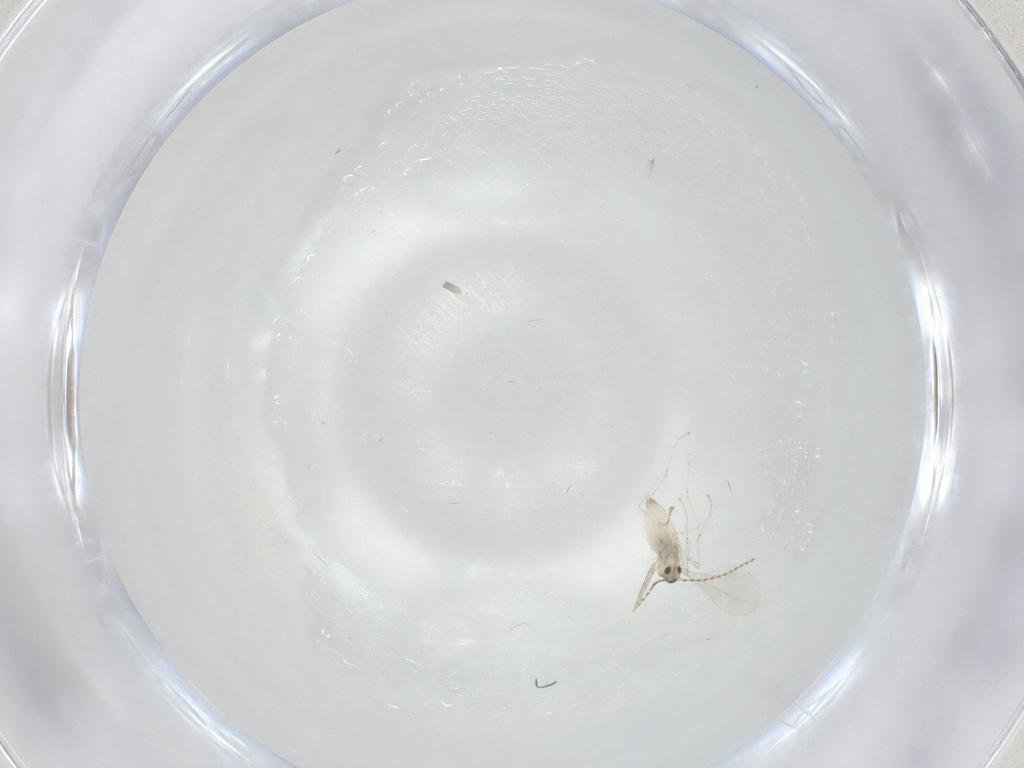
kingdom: Animalia
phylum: Arthropoda
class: Insecta
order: Diptera
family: Cecidomyiidae
